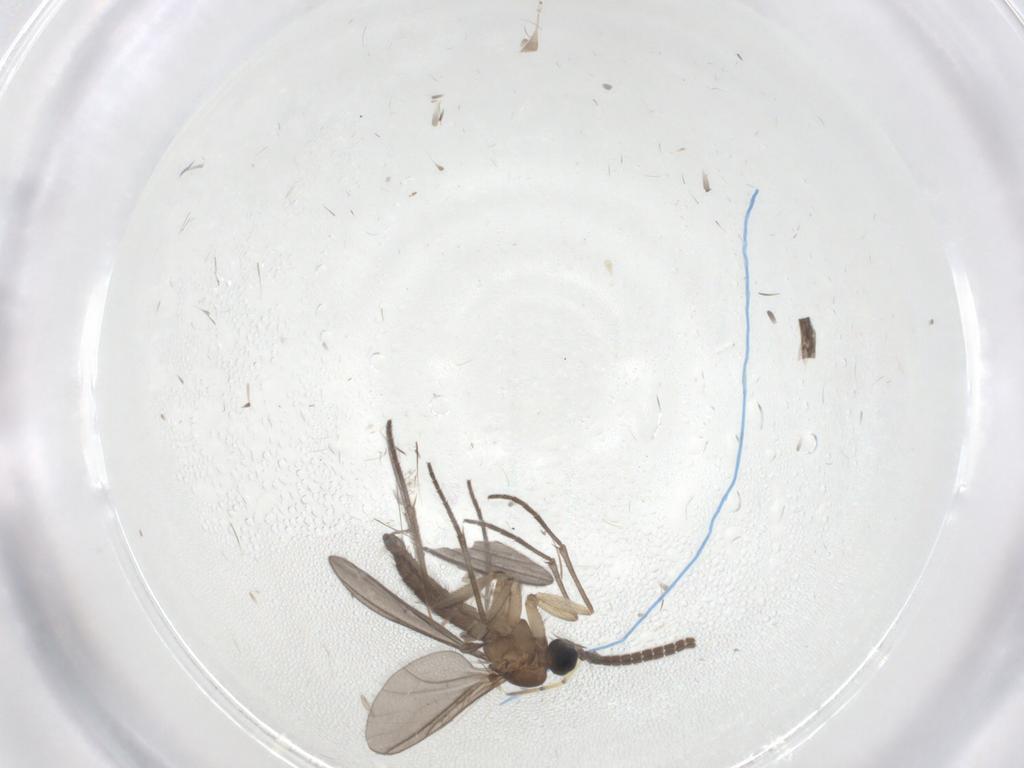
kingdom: Animalia
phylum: Arthropoda
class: Insecta
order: Diptera
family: Sciaridae
